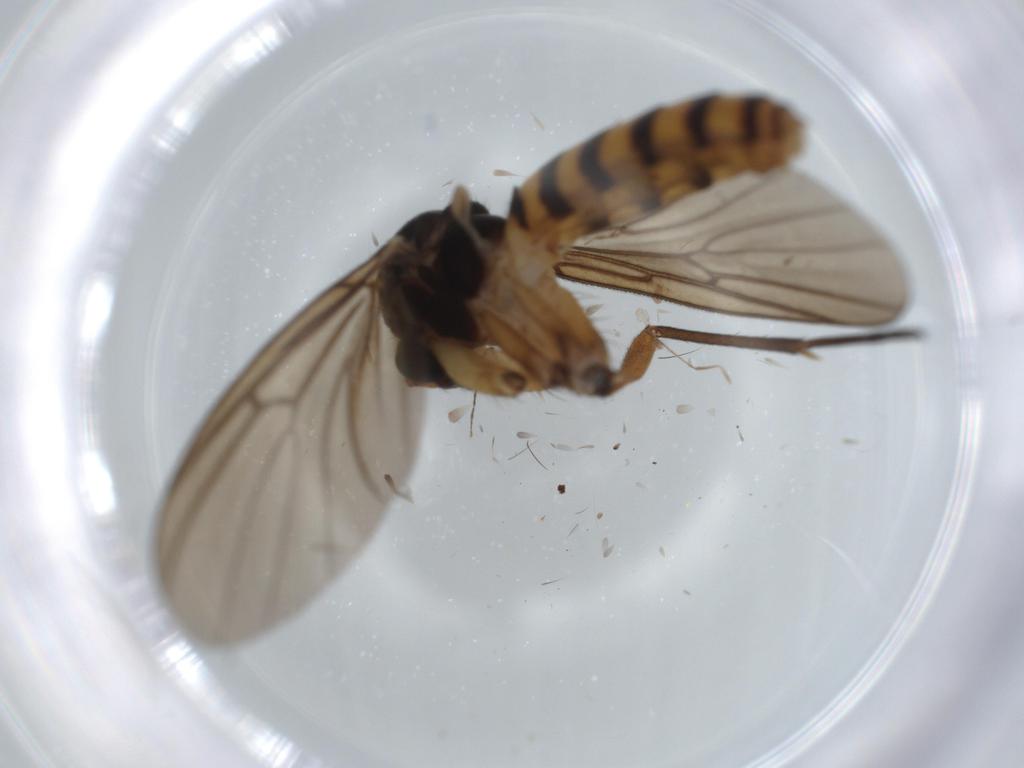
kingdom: Animalia
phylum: Arthropoda
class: Insecta
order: Diptera
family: Mycetophilidae
